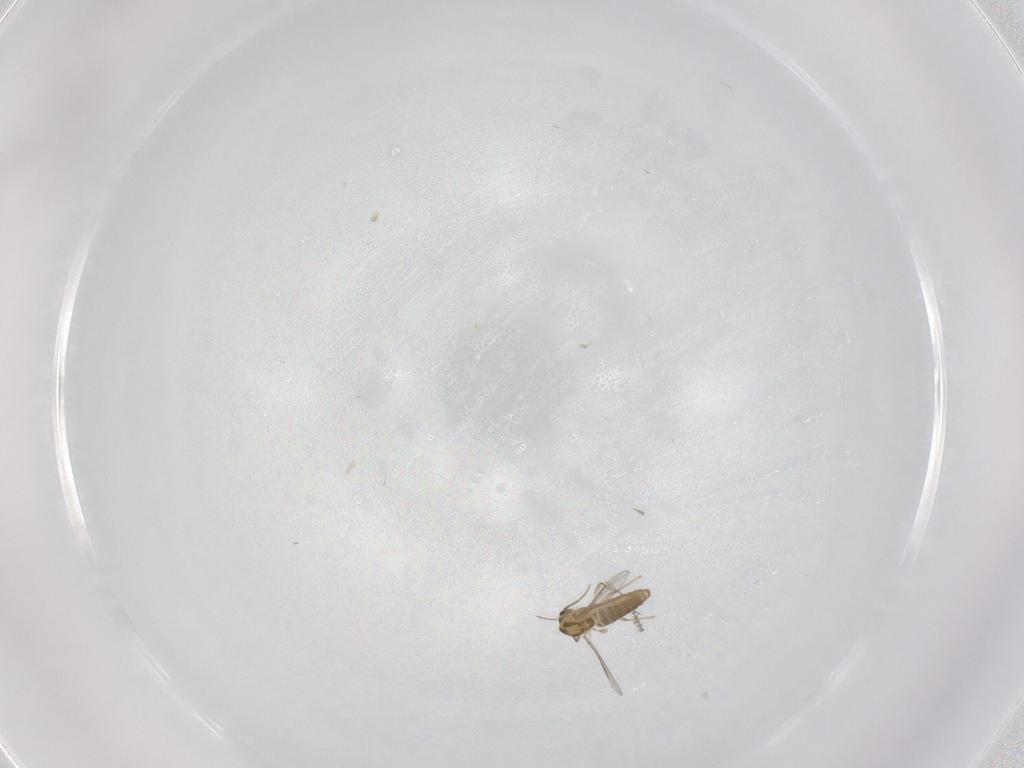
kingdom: Animalia
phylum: Arthropoda
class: Insecta
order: Diptera
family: Chironomidae
